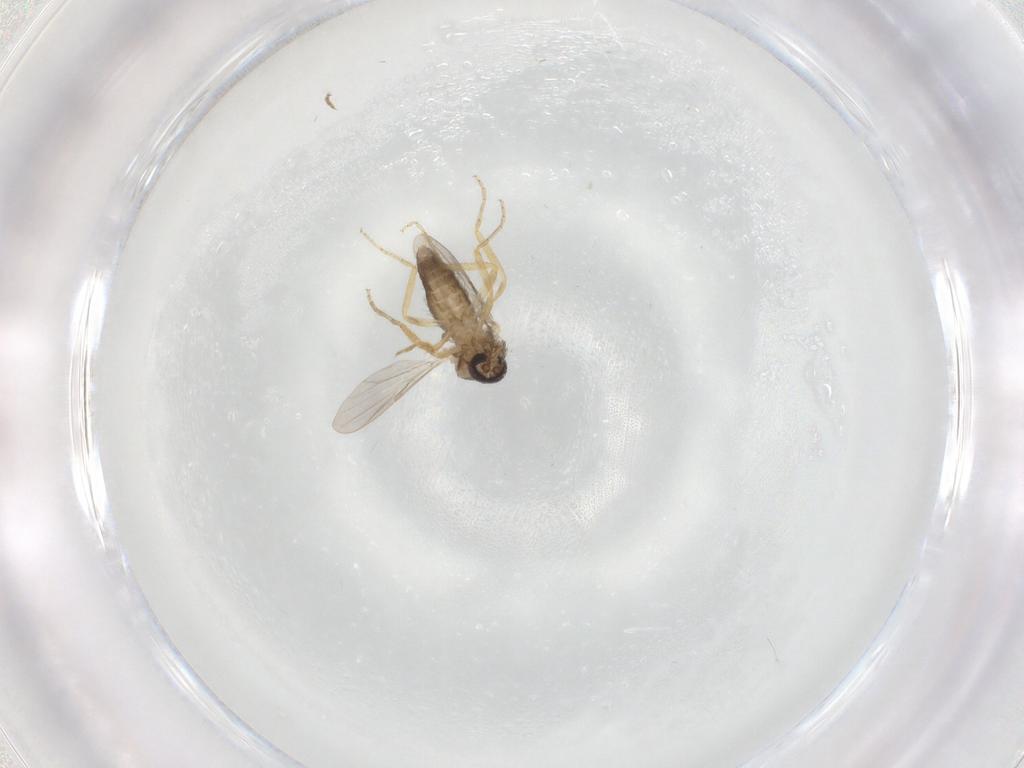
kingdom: Animalia
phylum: Arthropoda
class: Insecta
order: Diptera
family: Ceratopogonidae
